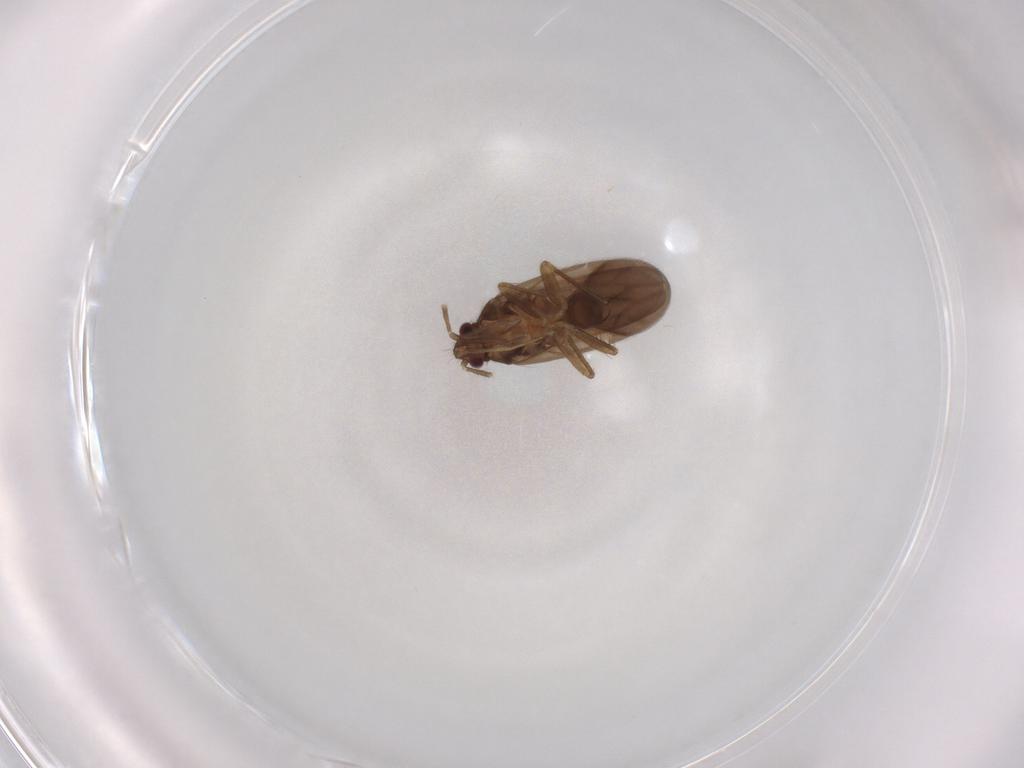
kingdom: Animalia
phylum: Arthropoda
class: Insecta
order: Hemiptera
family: Ceratocombidae
